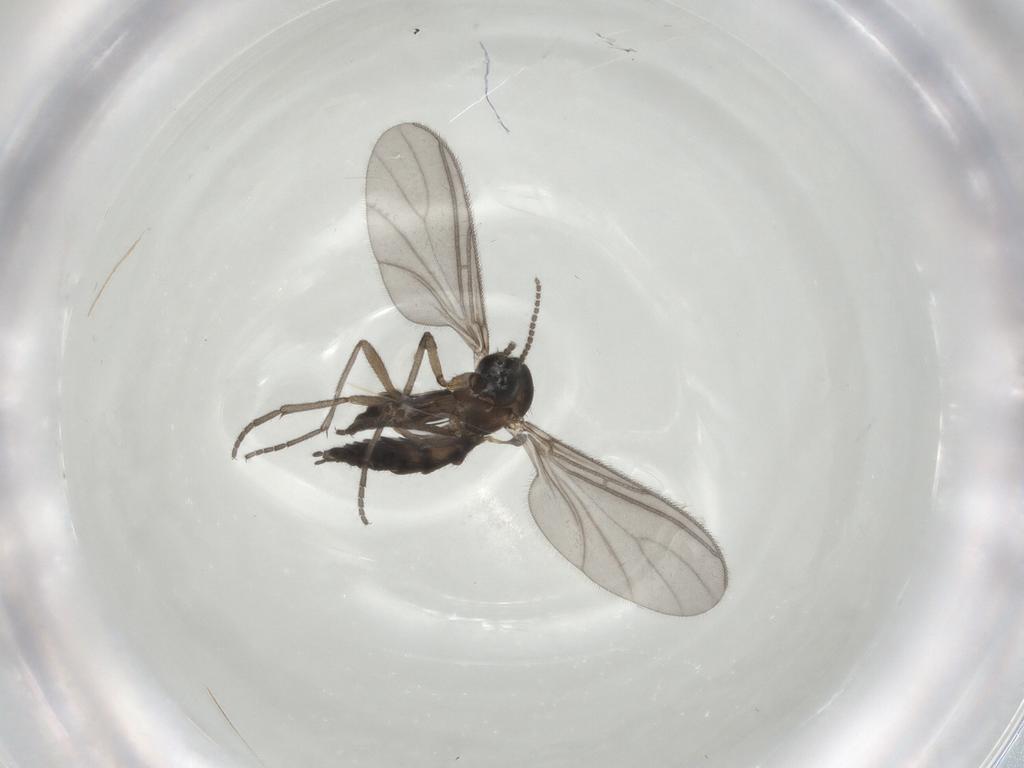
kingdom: Animalia
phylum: Arthropoda
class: Insecta
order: Diptera
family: Sciaridae
